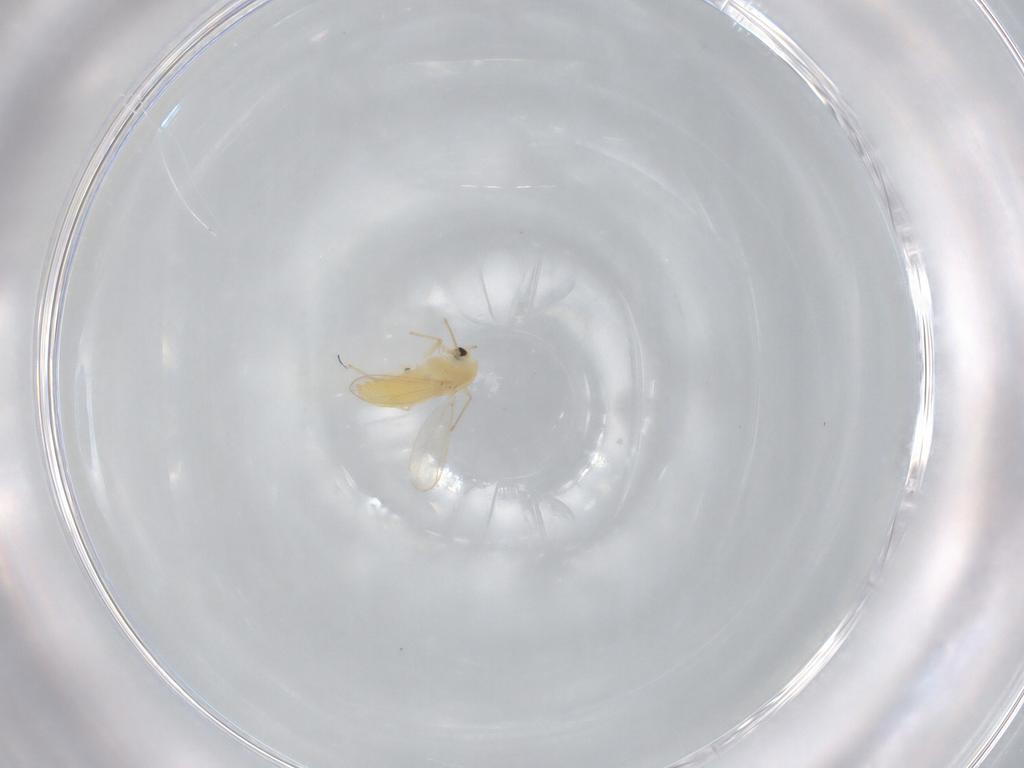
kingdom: Animalia
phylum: Arthropoda
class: Insecta
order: Diptera
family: Chironomidae
